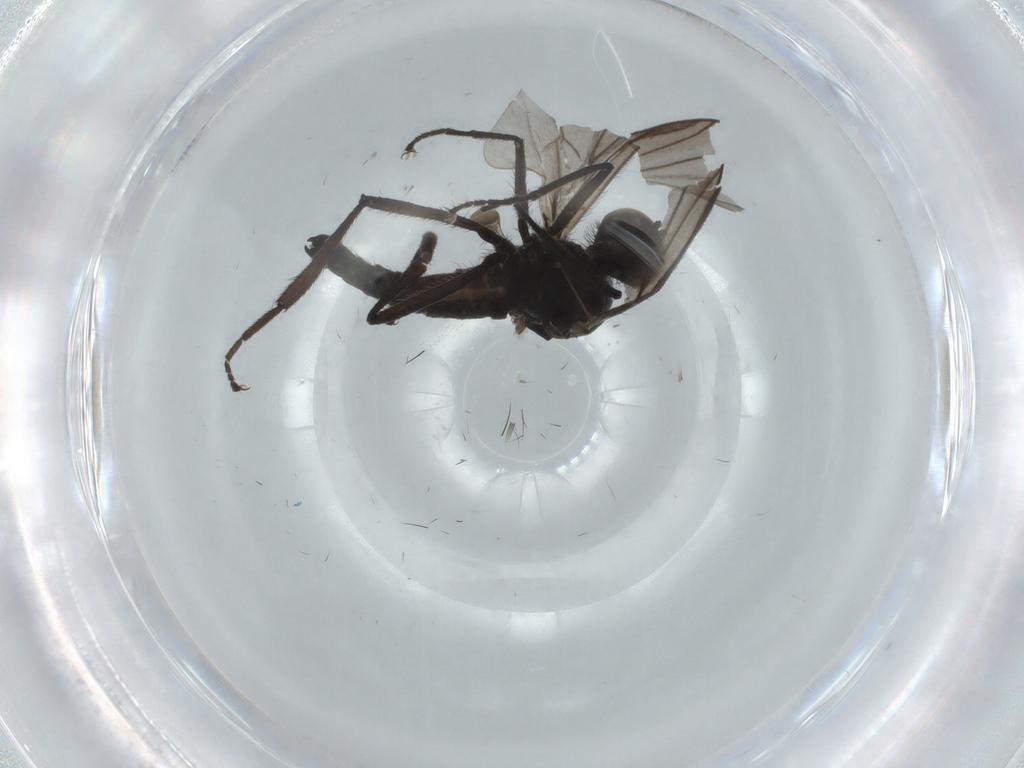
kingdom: Animalia
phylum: Arthropoda
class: Insecta
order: Diptera
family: Hybotidae
